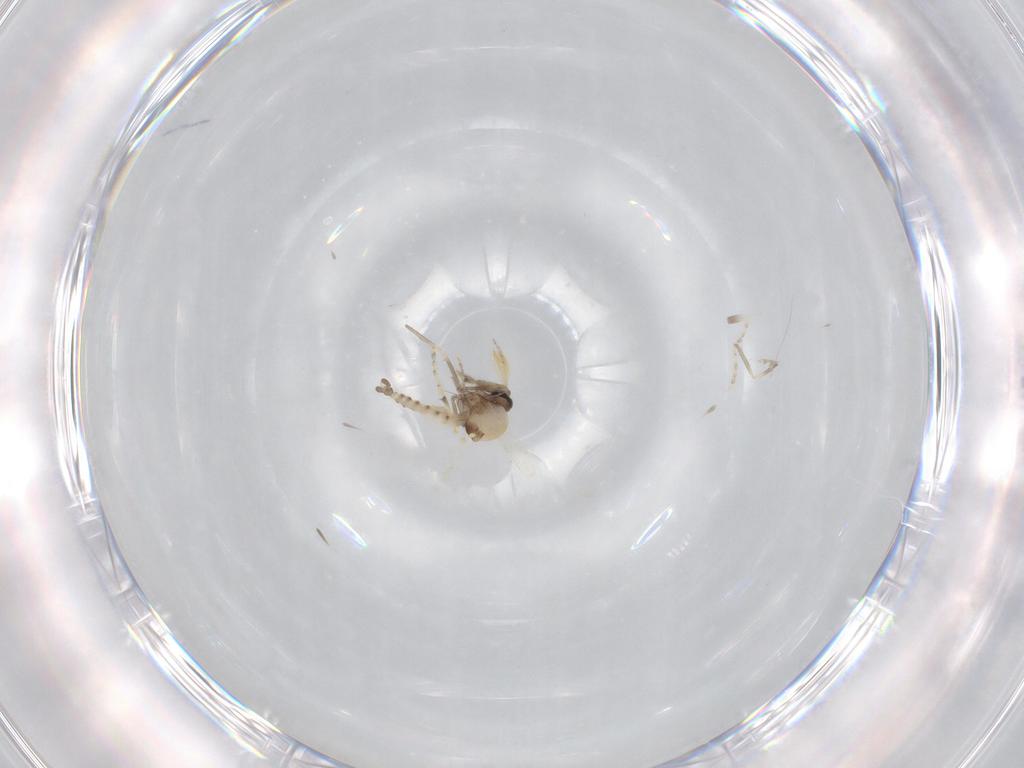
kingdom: Animalia
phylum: Arthropoda
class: Insecta
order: Diptera
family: Ceratopogonidae
